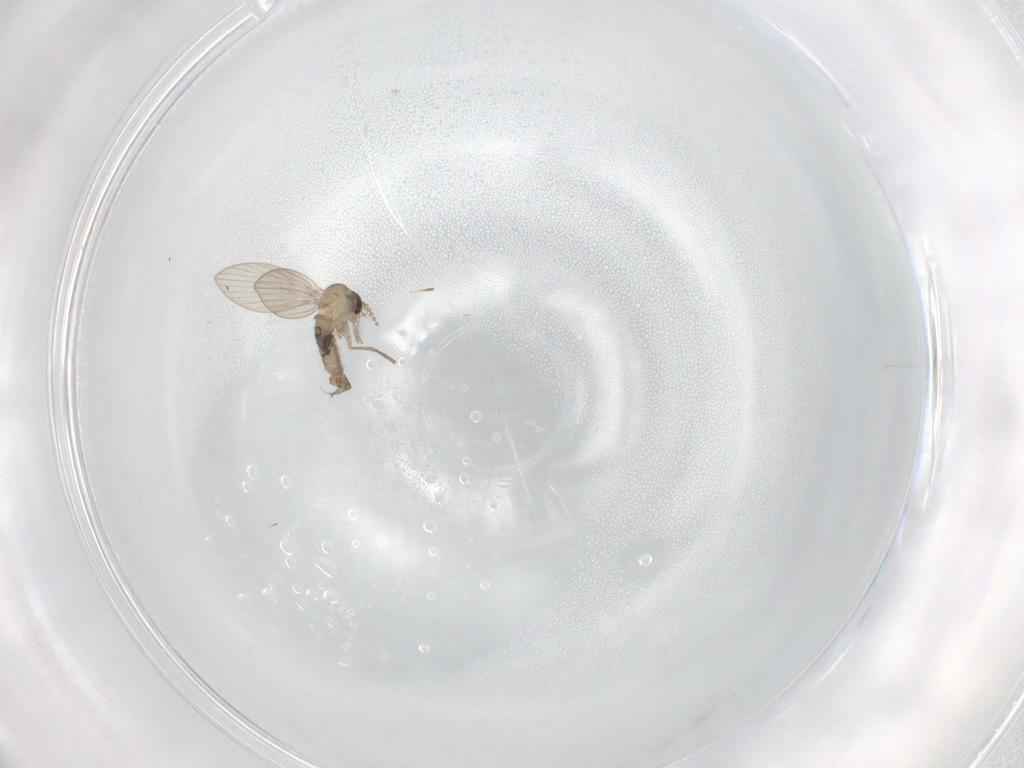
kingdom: Animalia
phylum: Arthropoda
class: Insecta
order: Diptera
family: Psychodidae
